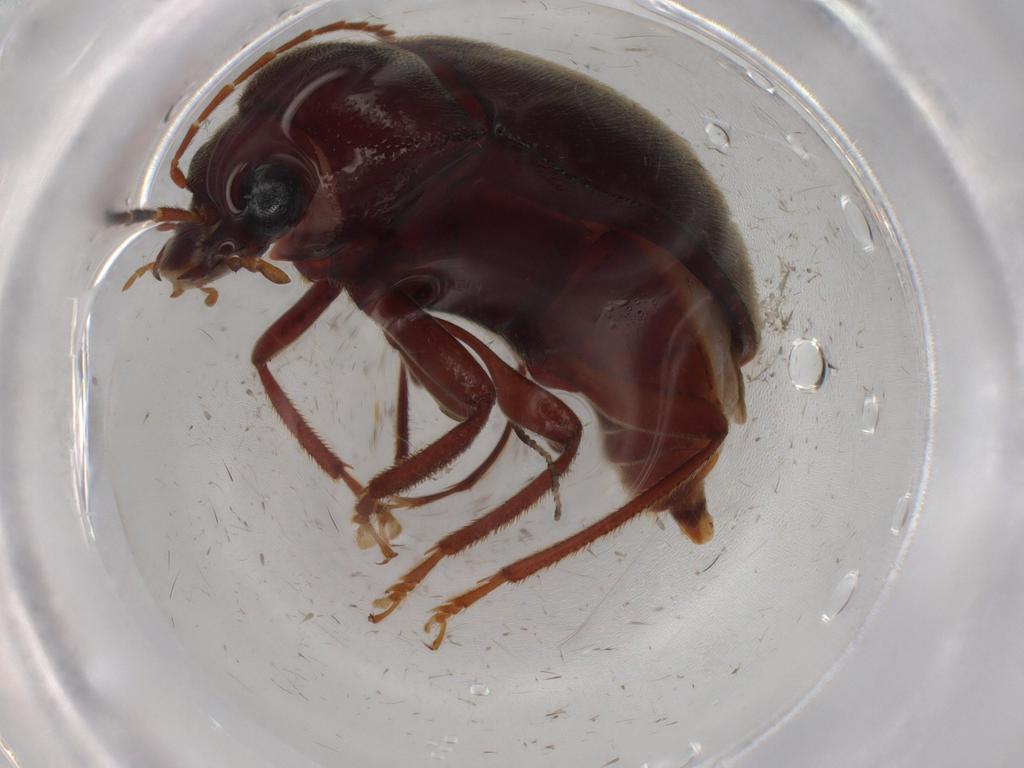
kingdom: Animalia
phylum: Arthropoda
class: Insecta
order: Coleoptera
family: Ptilodactylidae
